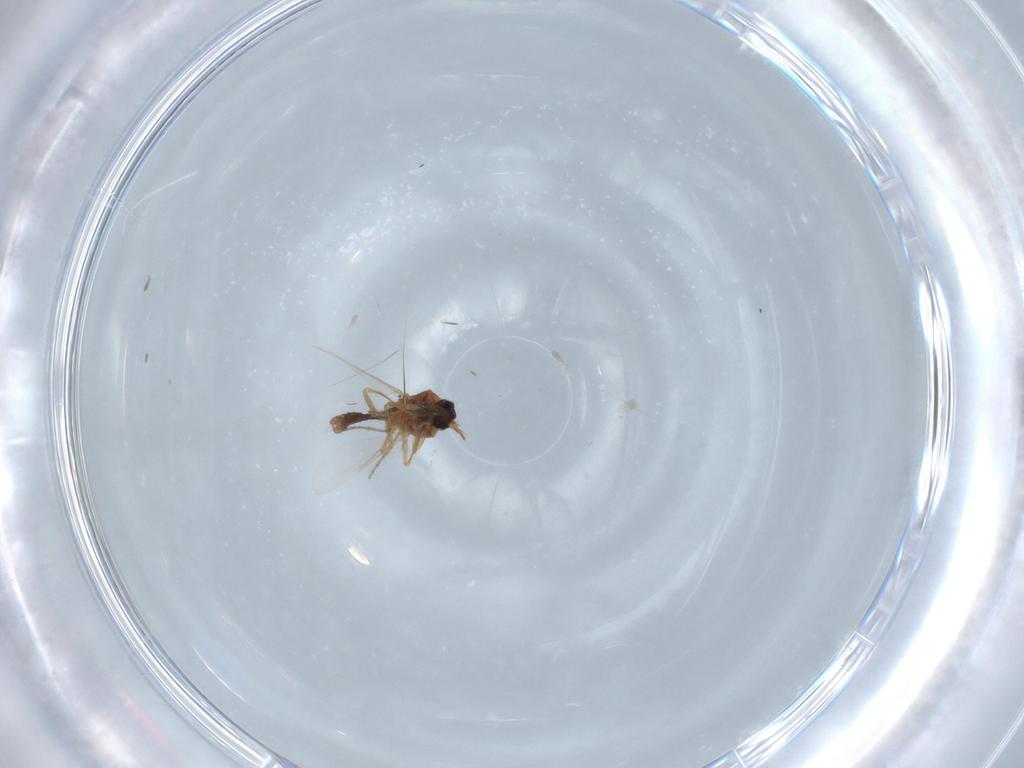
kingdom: Animalia
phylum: Arthropoda
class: Insecta
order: Diptera
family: Ceratopogonidae
